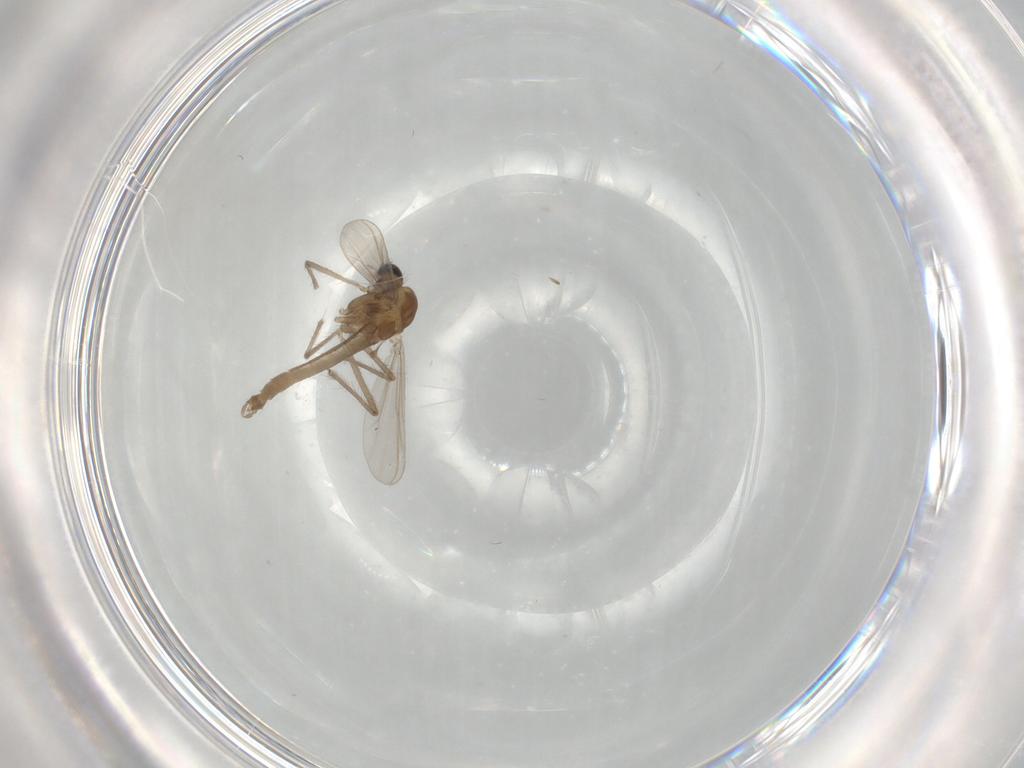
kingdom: Animalia
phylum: Arthropoda
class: Insecta
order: Diptera
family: Chironomidae
